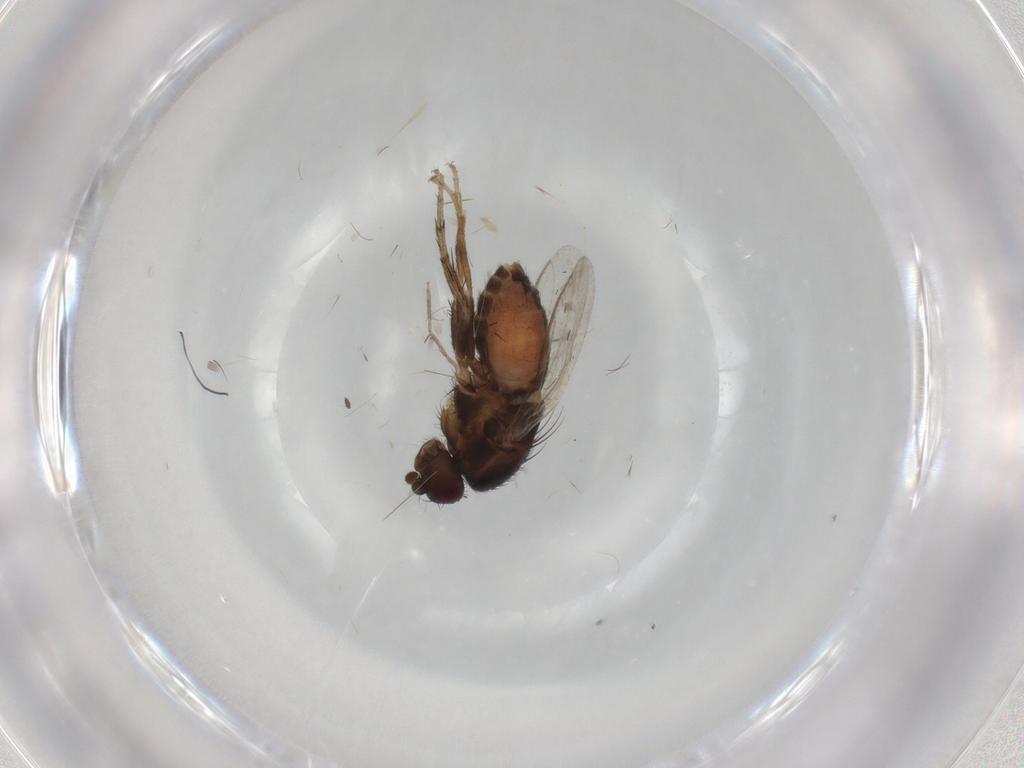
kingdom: Animalia
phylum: Arthropoda
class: Insecta
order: Diptera
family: Sphaeroceridae
